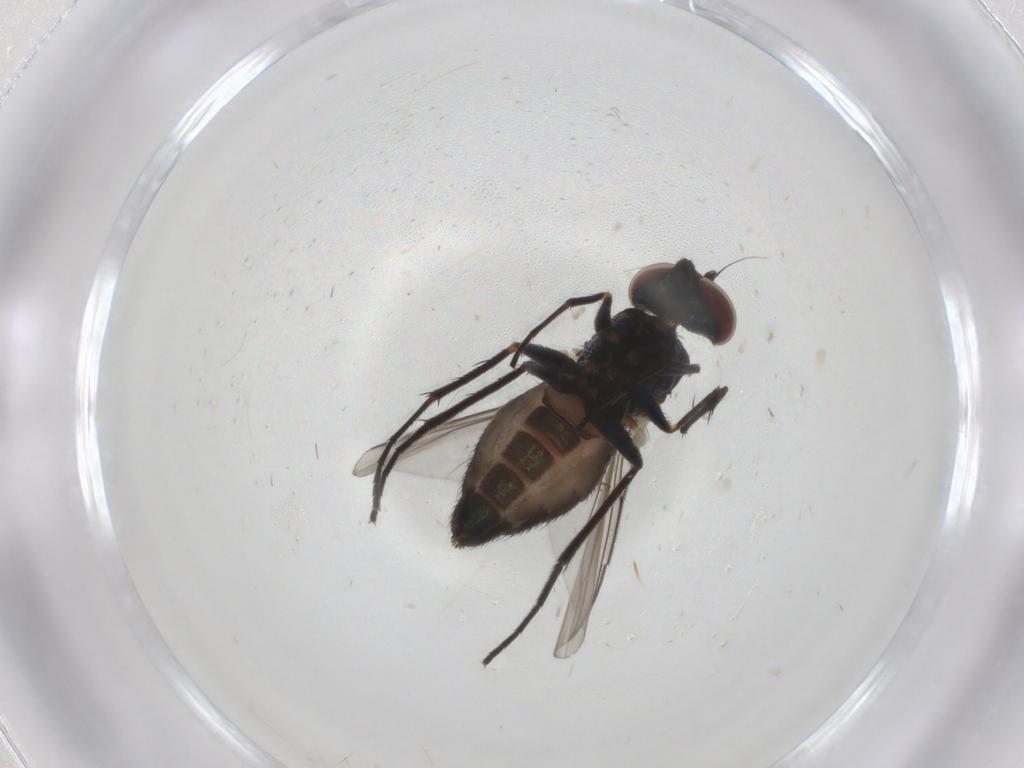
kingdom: Animalia
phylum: Arthropoda
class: Insecta
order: Diptera
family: Dolichopodidae
